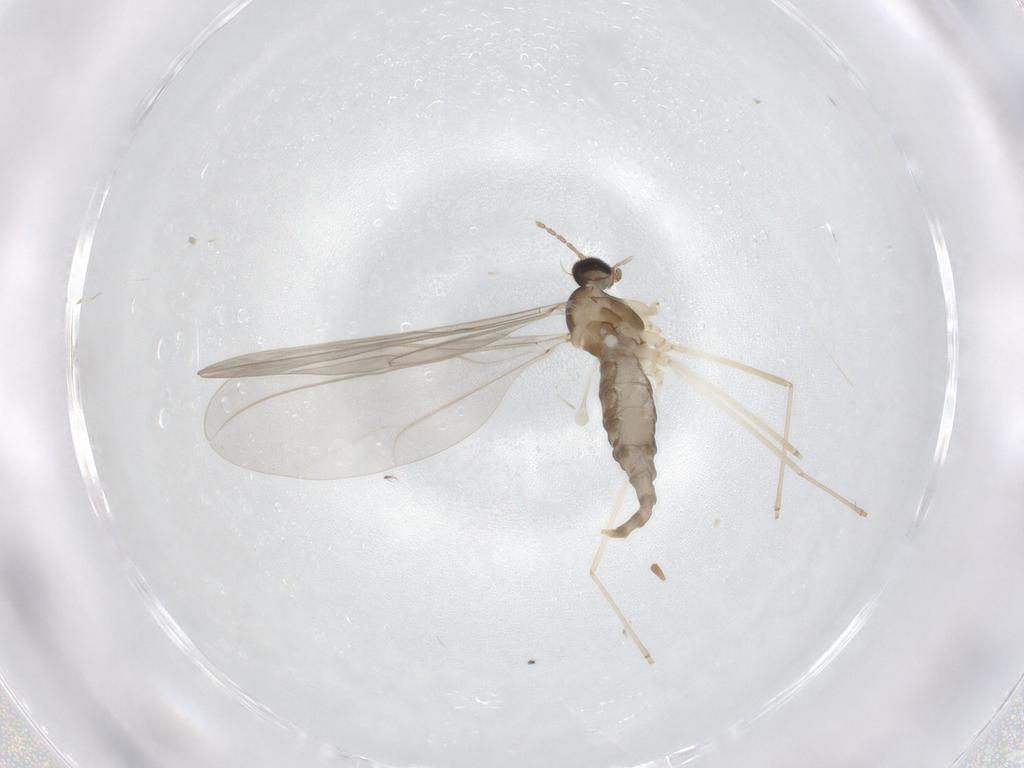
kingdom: Animalia
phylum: Arthropoda
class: Insecta
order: Diptera
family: Cecidomyiidae
